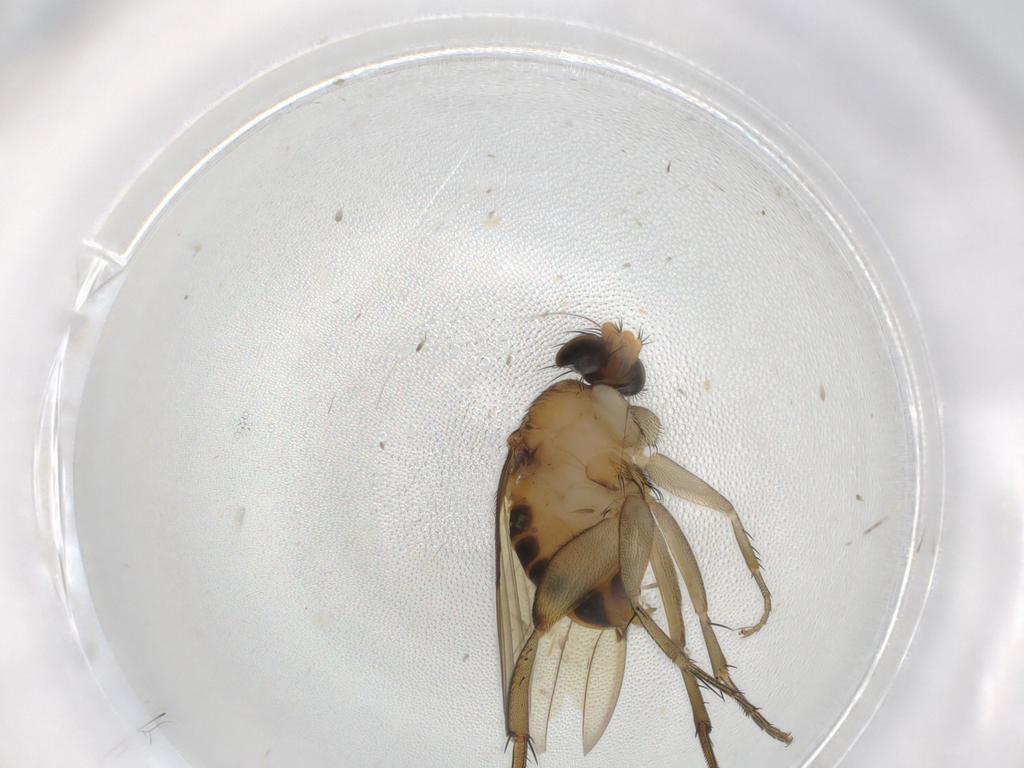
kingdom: Animalia
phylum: Arthropoda
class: Insecta
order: Diptera
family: Phoridae
